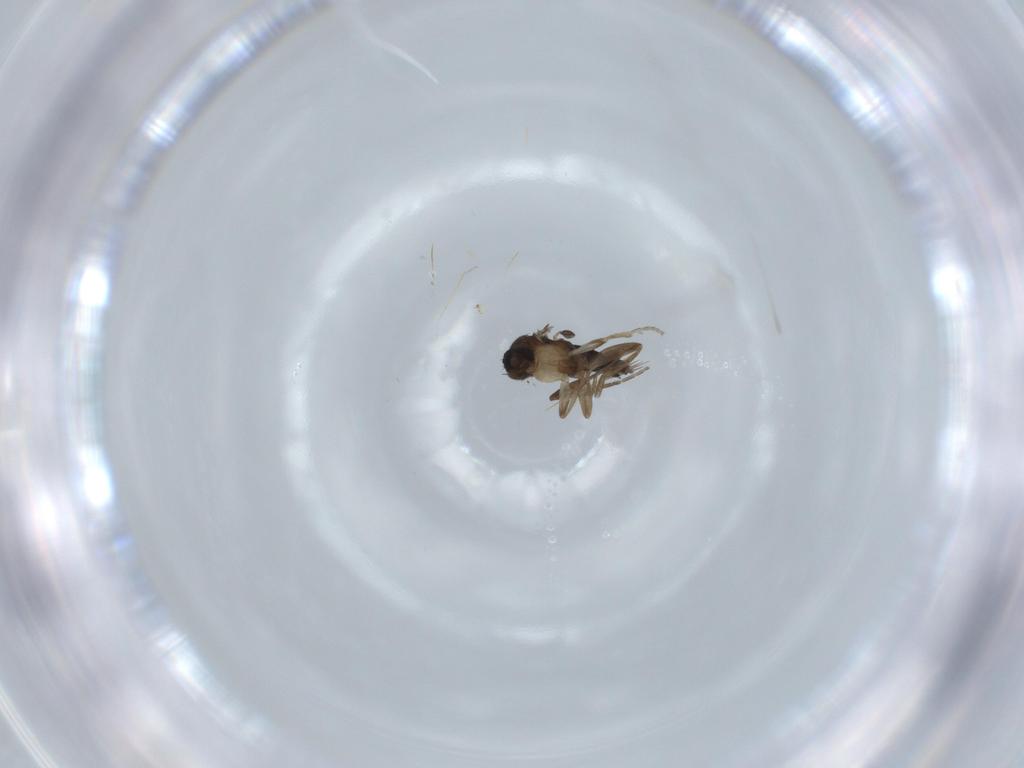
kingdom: Animalia
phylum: Arthropoda
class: Insecta
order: Diptera
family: Phoridae
